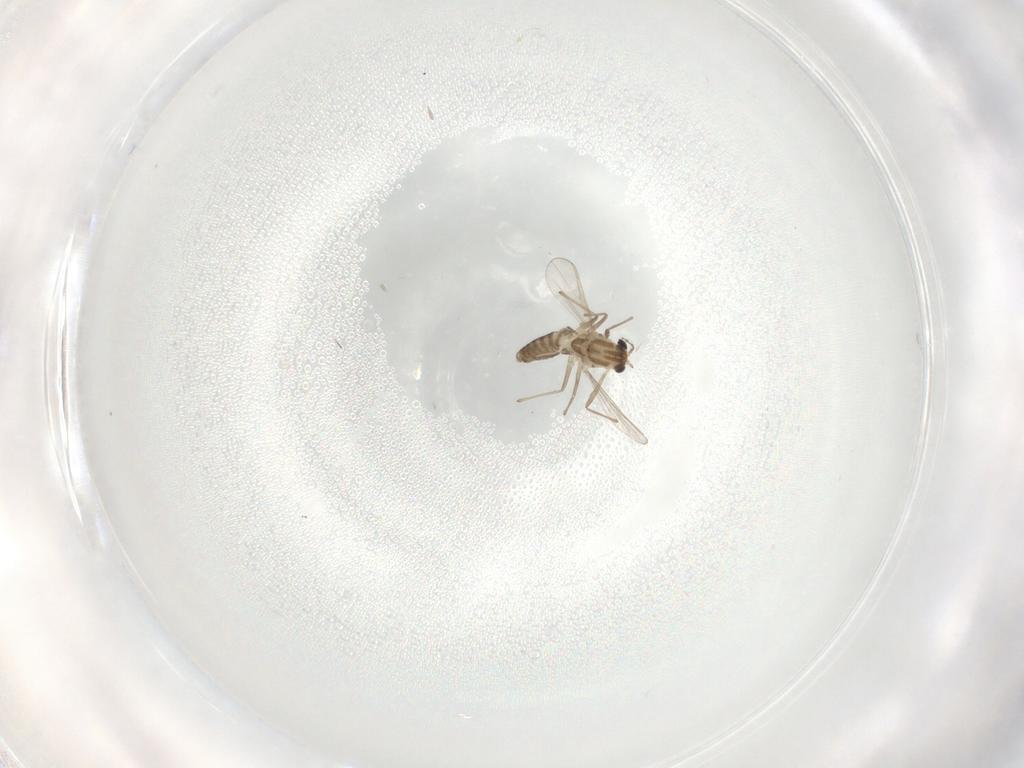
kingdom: Animalia
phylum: Arthropoda
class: Insecta
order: Diptera
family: Chironomidae
